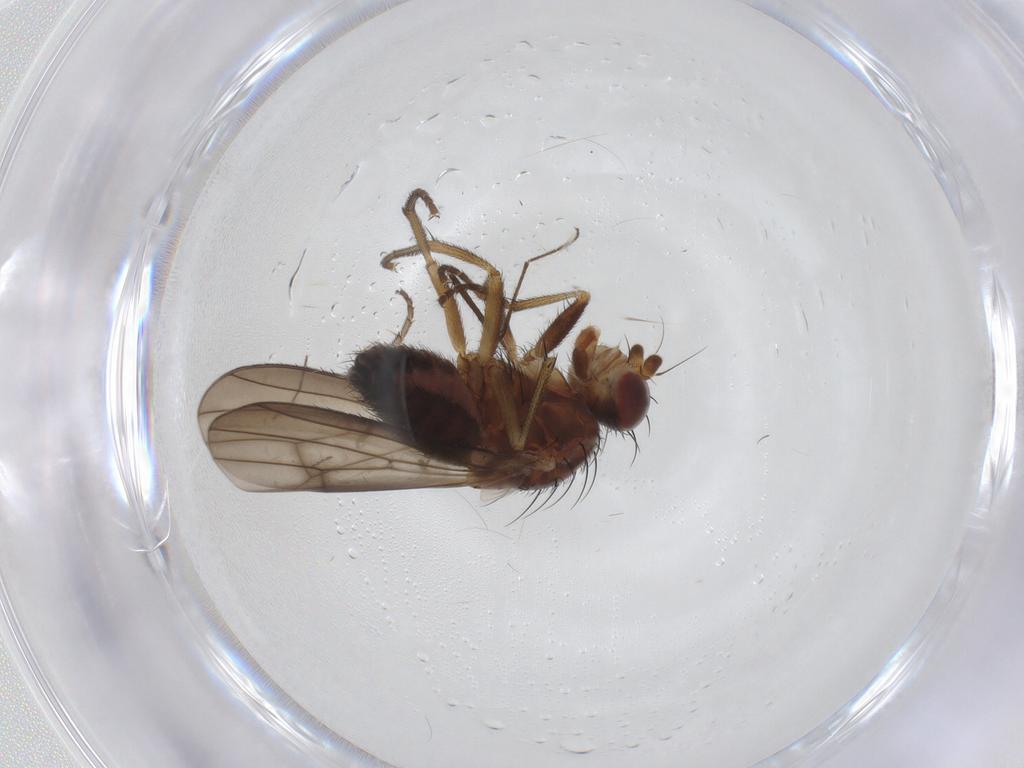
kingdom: Animalia
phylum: Arthropoda
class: Insecta
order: Diptera
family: Heleomyzidae
